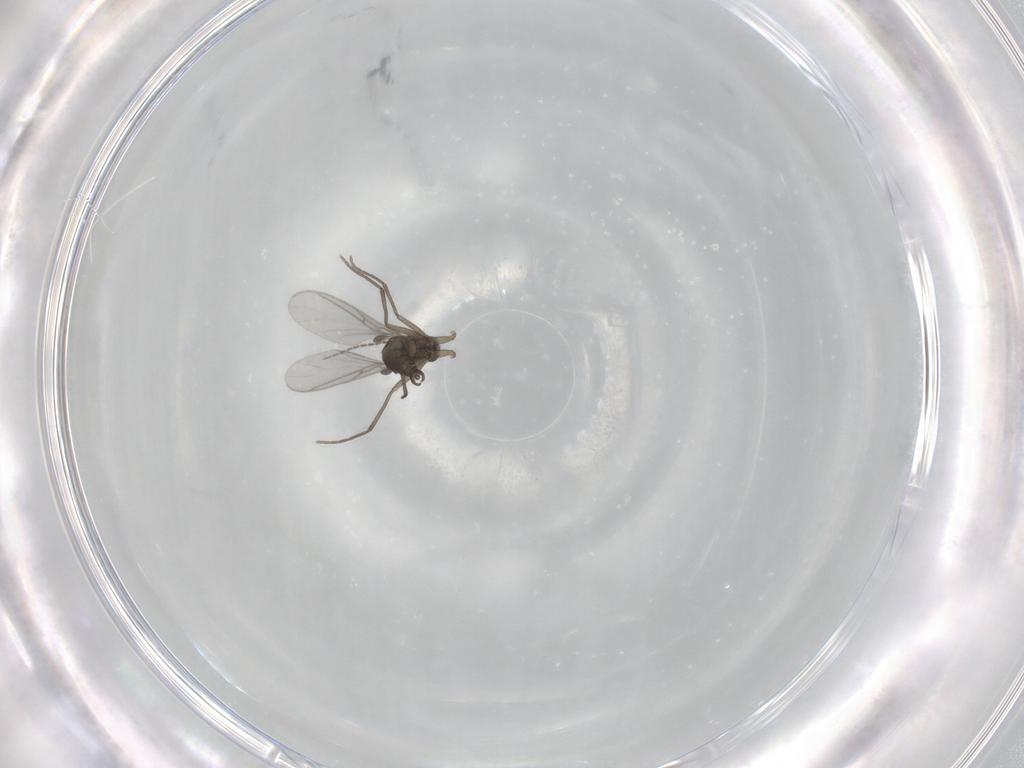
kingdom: Animalia
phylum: Arthropoda
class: Insecta
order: Diptera
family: Sciaridae
